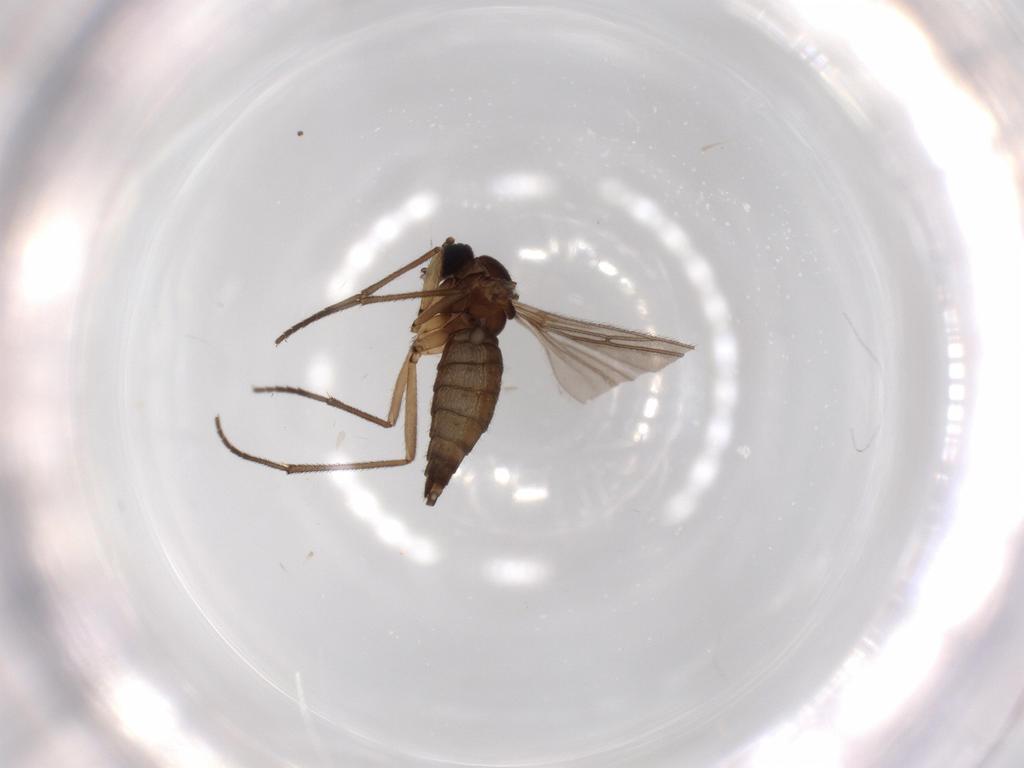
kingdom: Animalia
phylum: Arthropoda
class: Insecta
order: Diptera
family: Sciaridae
